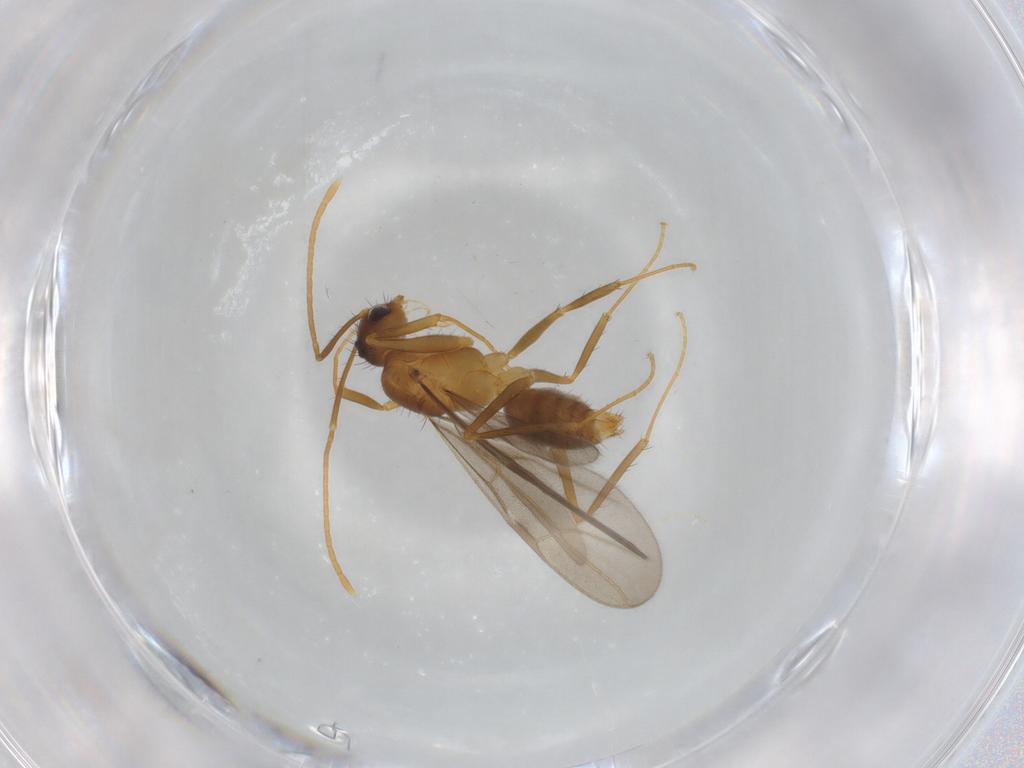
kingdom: Animalia
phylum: Arthropoda
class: Insecta
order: Hymenoptera
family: Formicidae
